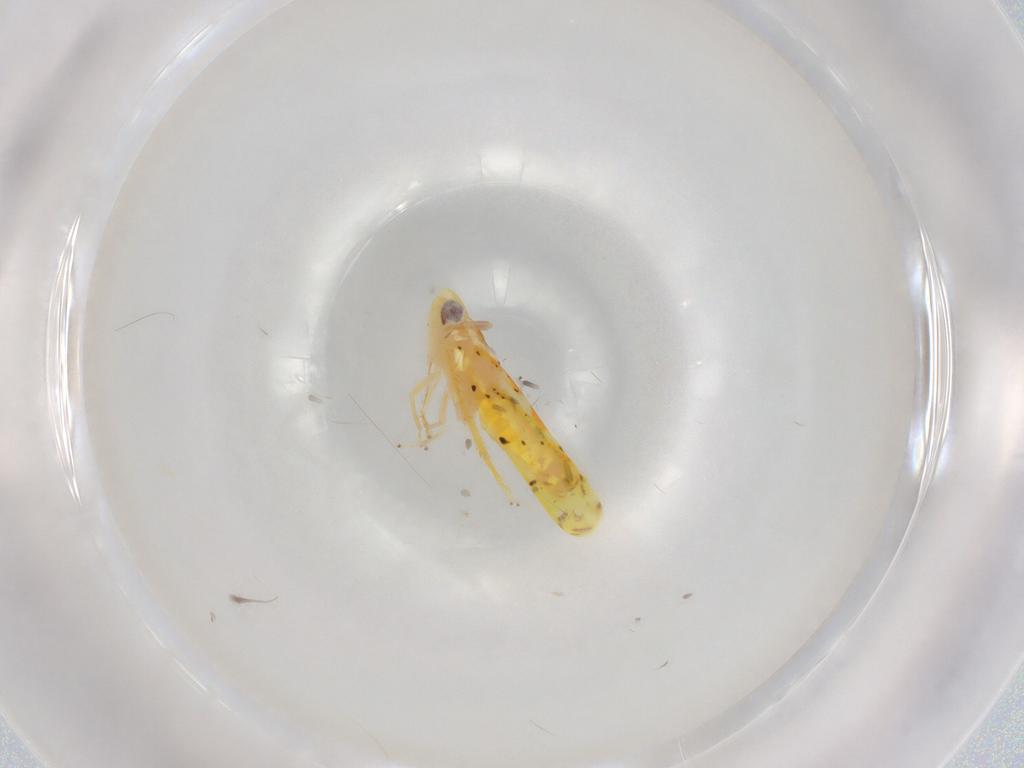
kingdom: Animalia
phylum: Arthropoda
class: Insecta
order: Hemiptera
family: Cicadellidae
